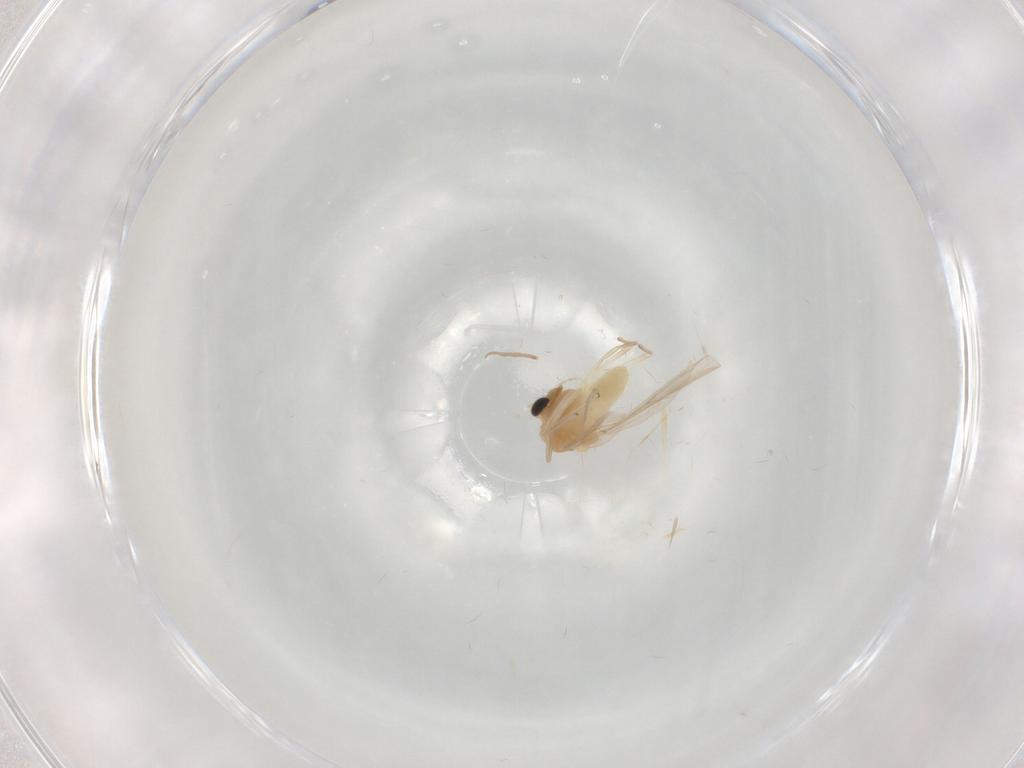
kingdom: Animalia
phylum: Arthropoda
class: Insecta
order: Diptera
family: Chironomidae
